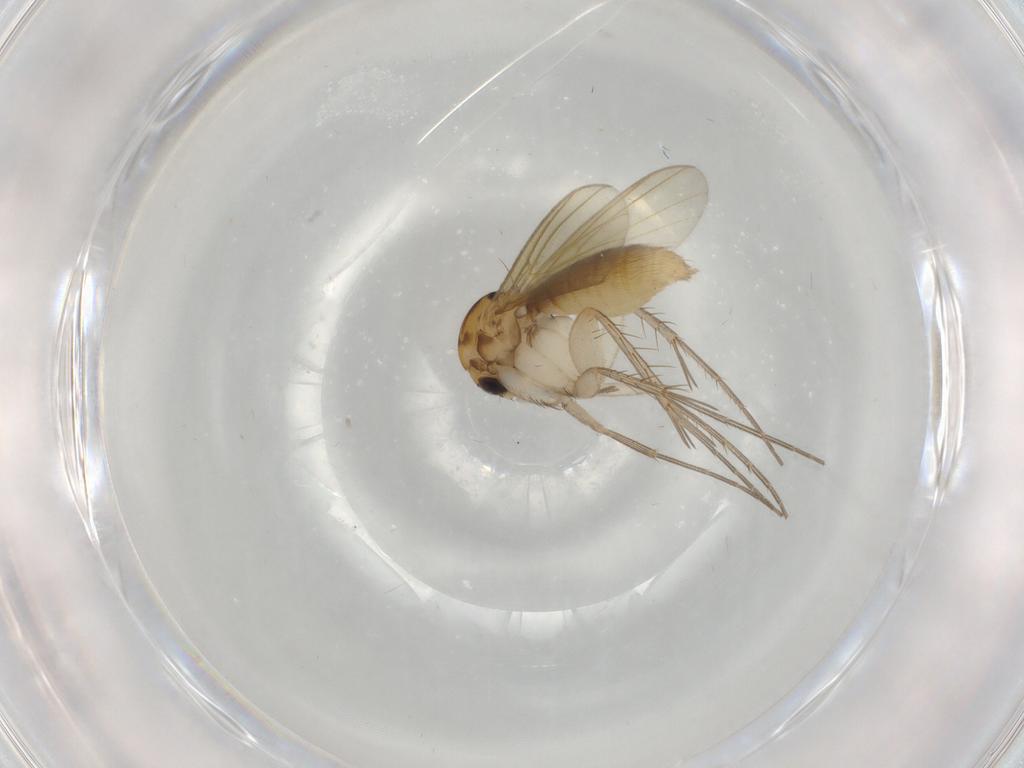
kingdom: Animalia
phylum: Arthropoda
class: Insecta
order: Diptera
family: Mycetophilidae
